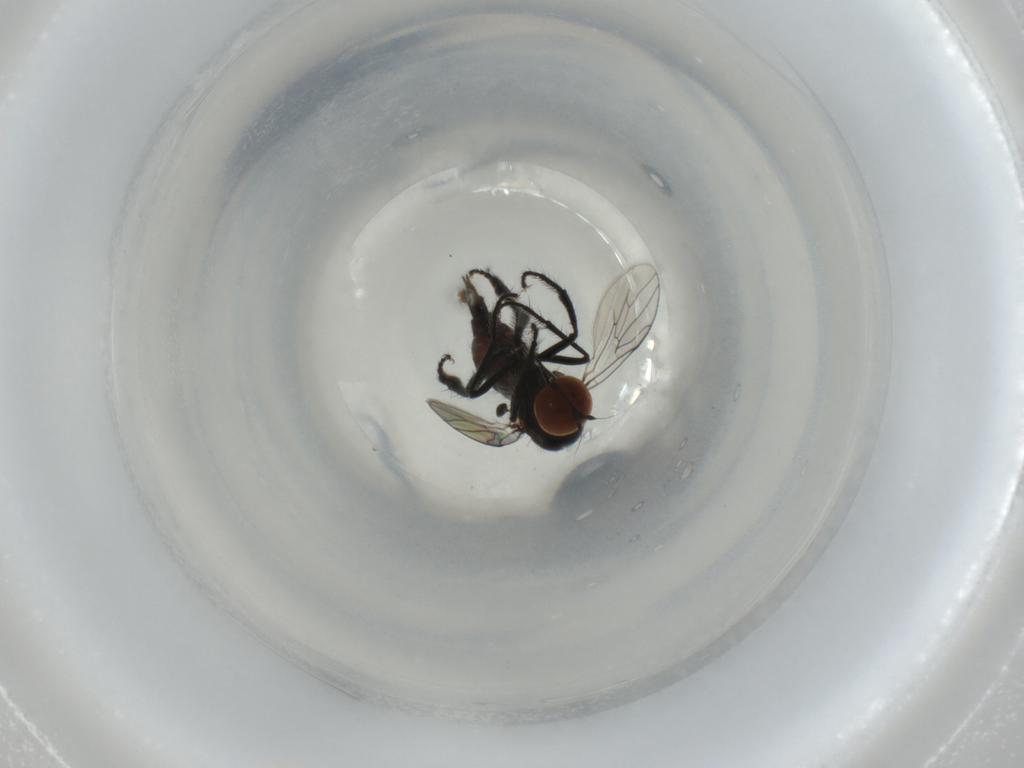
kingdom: Animalia
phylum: Arthropoda
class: Insecta
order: Diptera
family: Hybotidae
